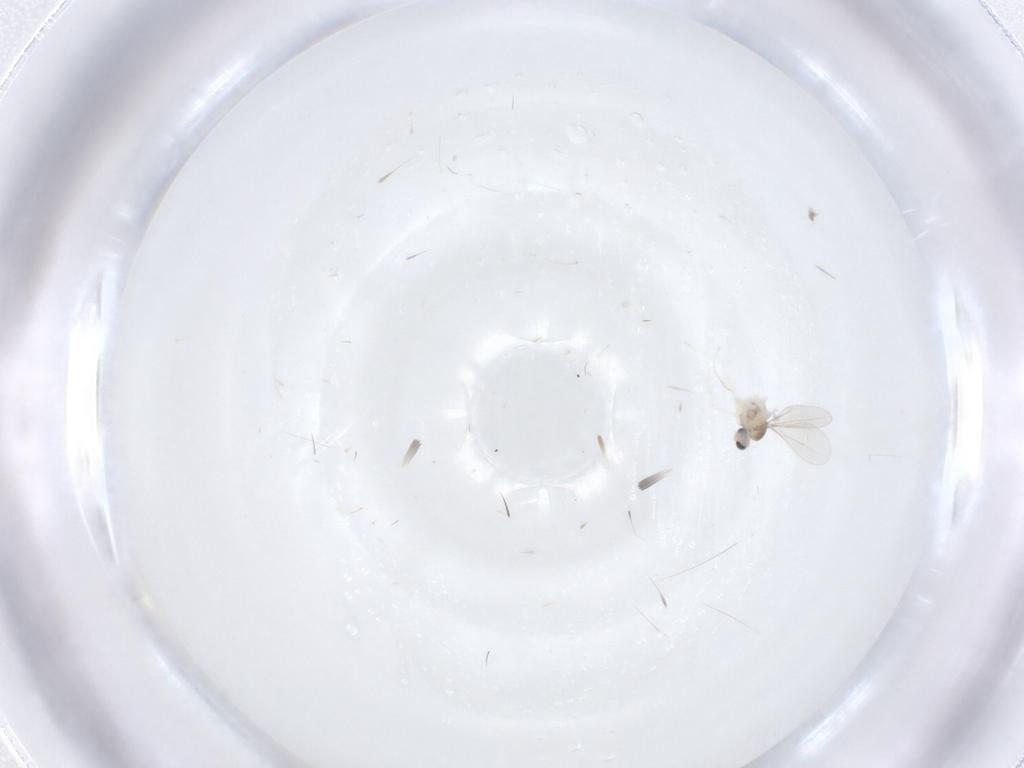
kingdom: Animalia
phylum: Arthropoda
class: Insecta
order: Diptera
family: Cecidomyiidae
